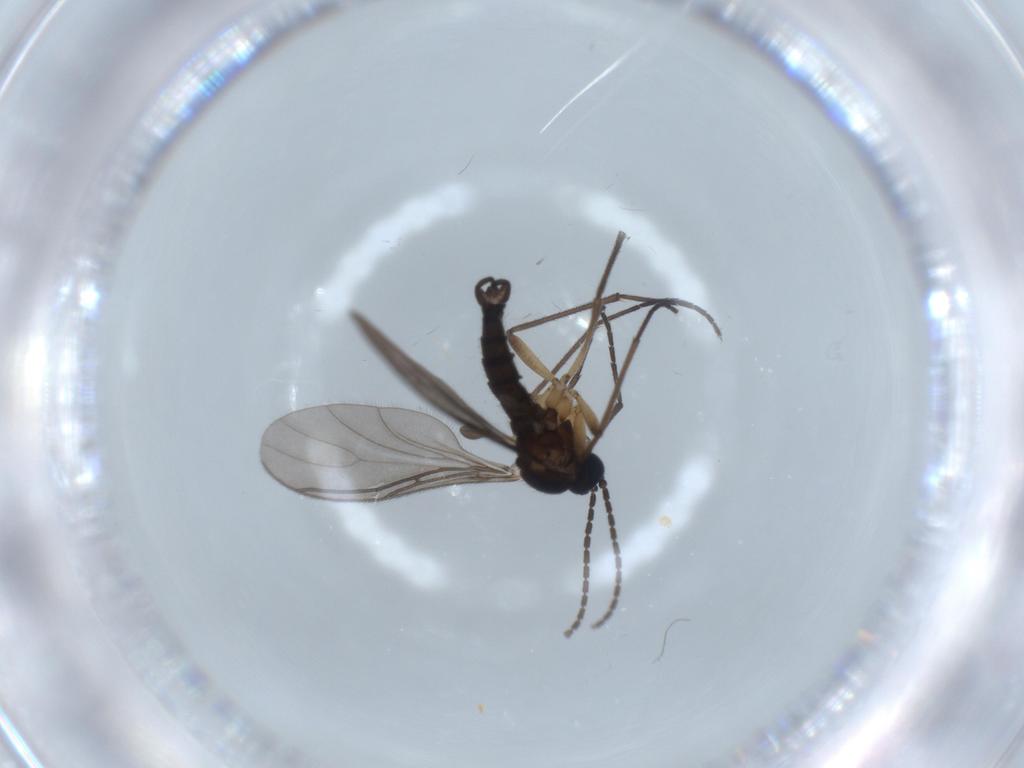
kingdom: Animalia
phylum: Arthropoda
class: Insecta
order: Diptera
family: Sciaridae
